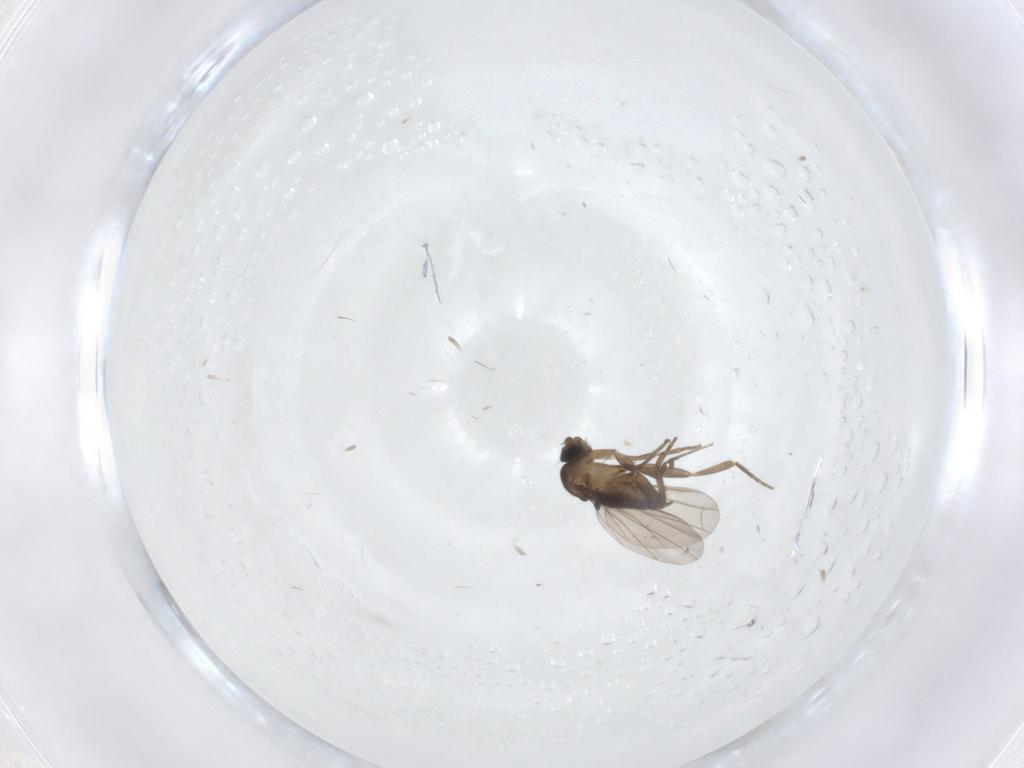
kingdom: Animalia
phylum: Arthropoda
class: Insecta
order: Diptera
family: Phoridae
